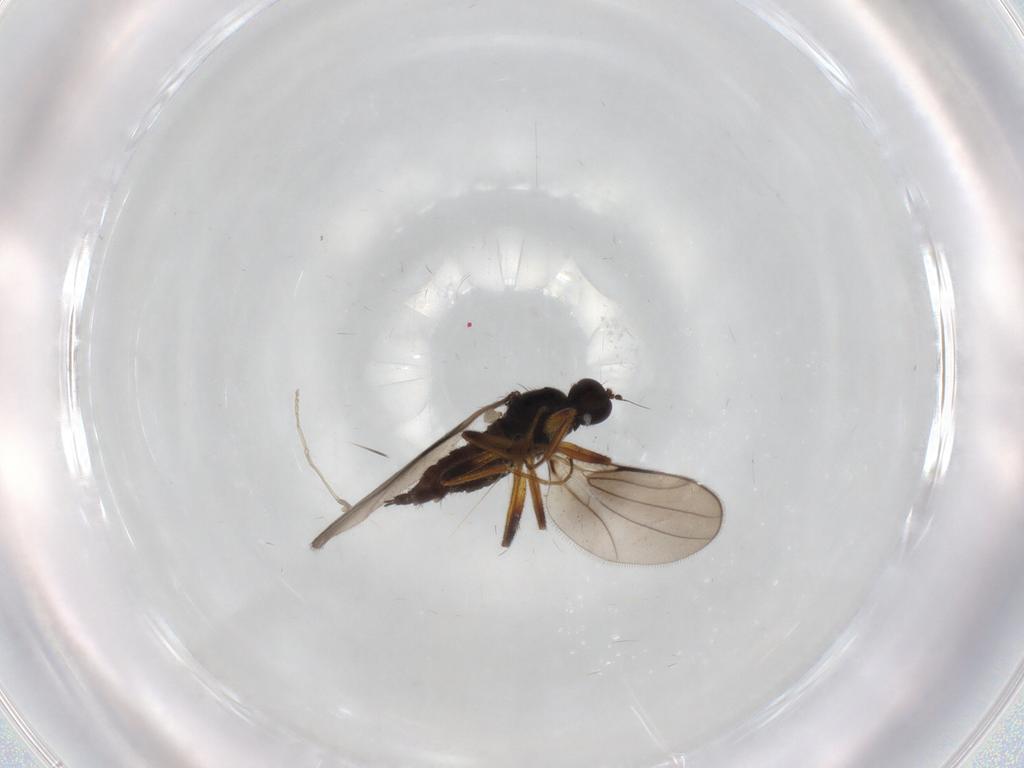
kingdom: Animalia
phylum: Arthropoda
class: Insecta
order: Diptera
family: Hybotidae
